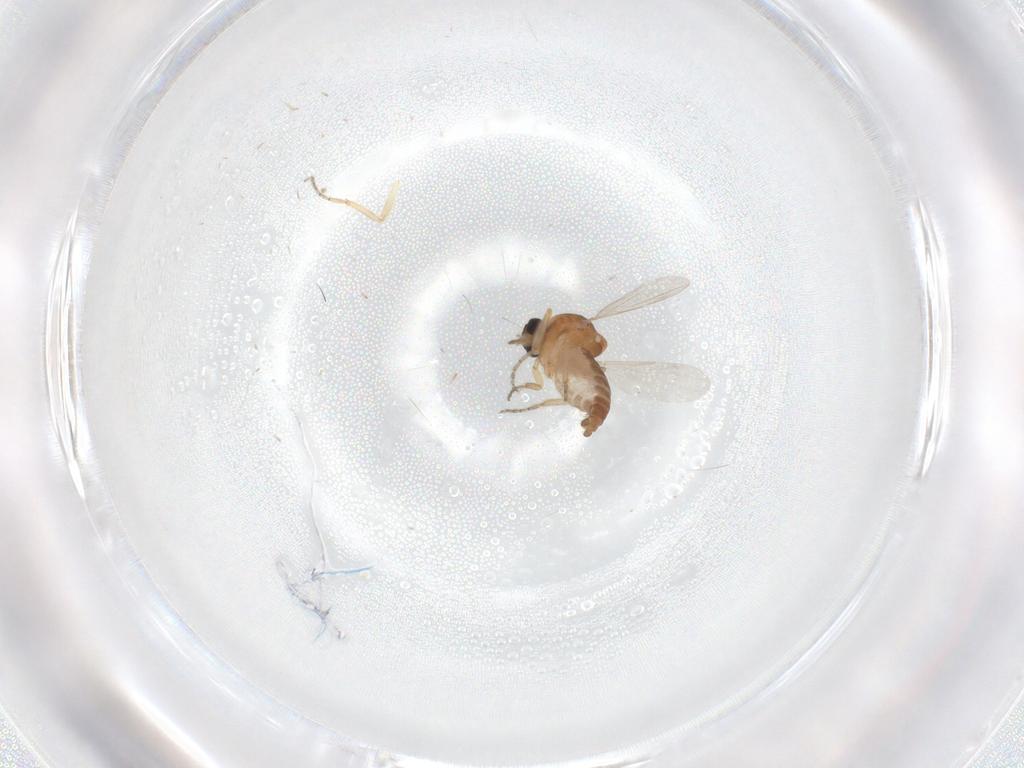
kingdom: Animalia
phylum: Arthropoda
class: Insecta
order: Diptera
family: Ceratopogonidae
